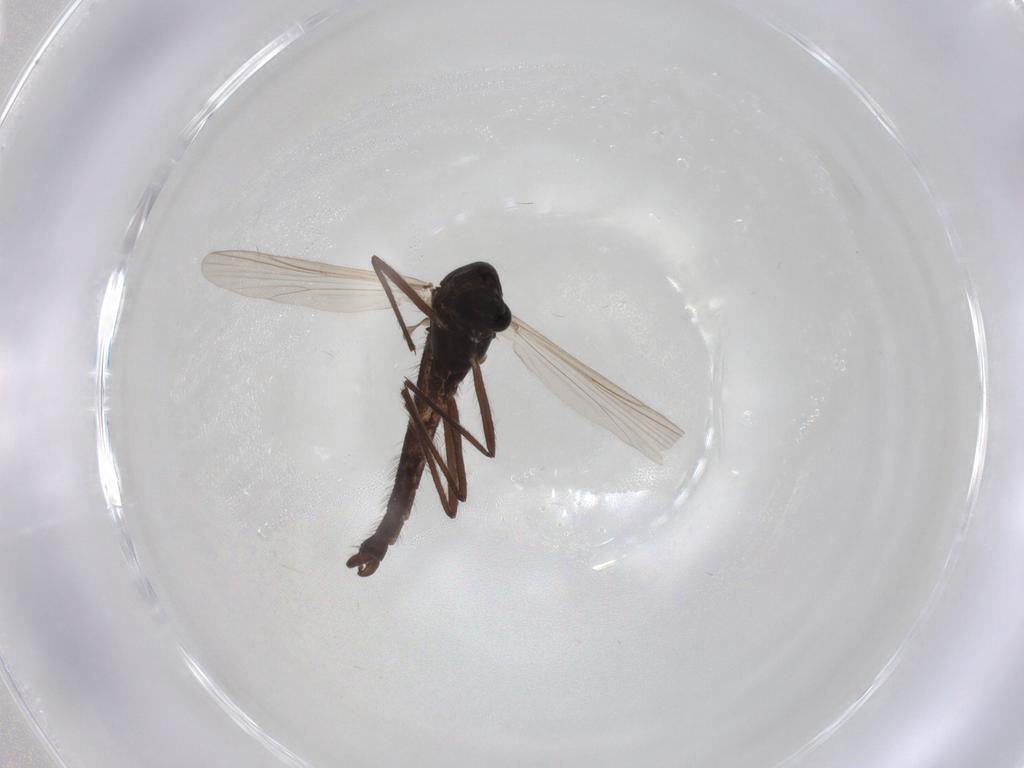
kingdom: Animalia
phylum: Arthropoda
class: Insecta
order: Diptera
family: Chironomidae
